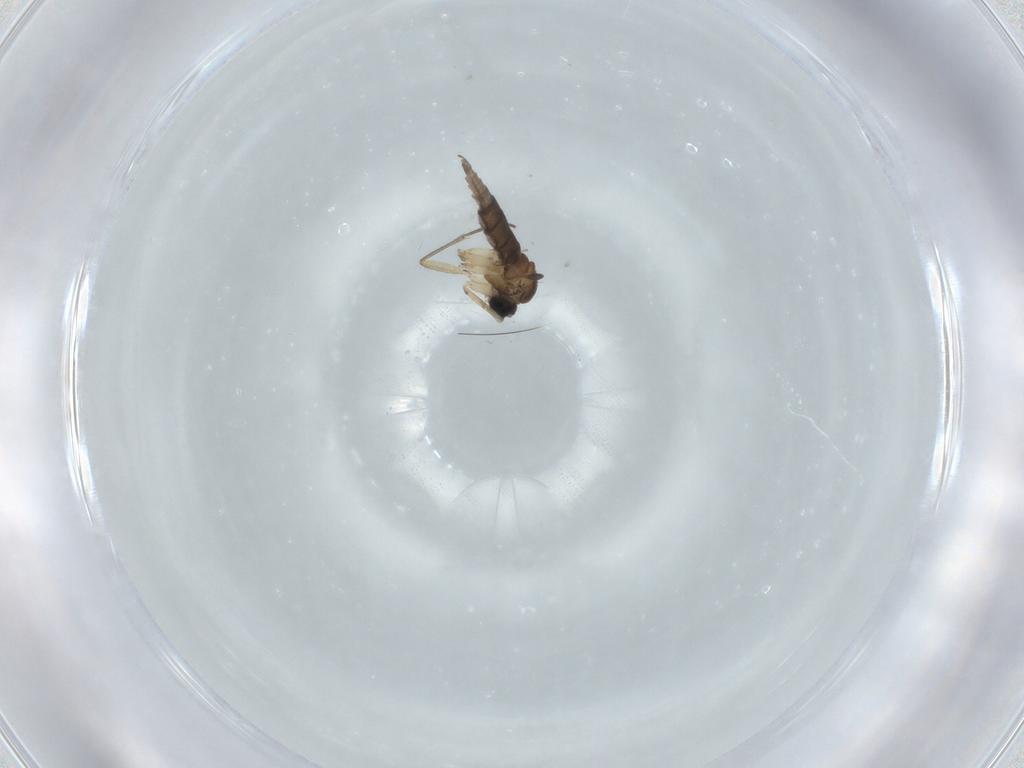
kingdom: Animalia
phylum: Arthropoda
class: Insecta
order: Diptera
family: Sciaridae
